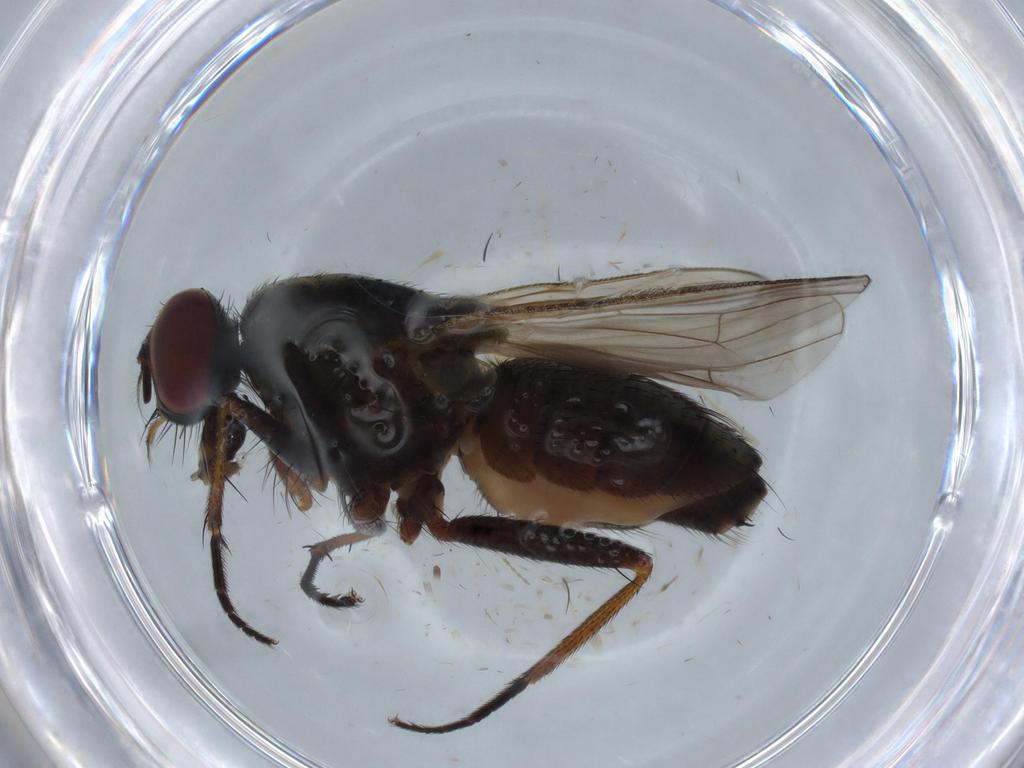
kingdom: Animalia
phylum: Arthropoda
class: Insecta
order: Diptera
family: Muscidae
